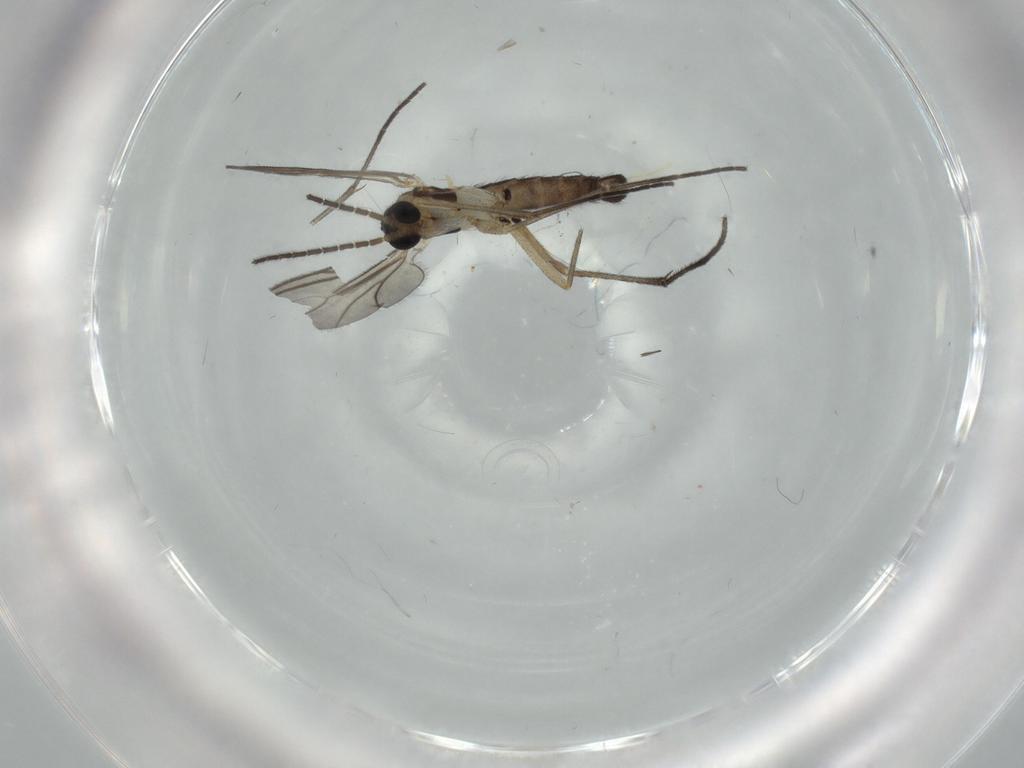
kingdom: Animalia
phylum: Arthropoda
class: Insecta
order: Diptera
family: Sciaridae
